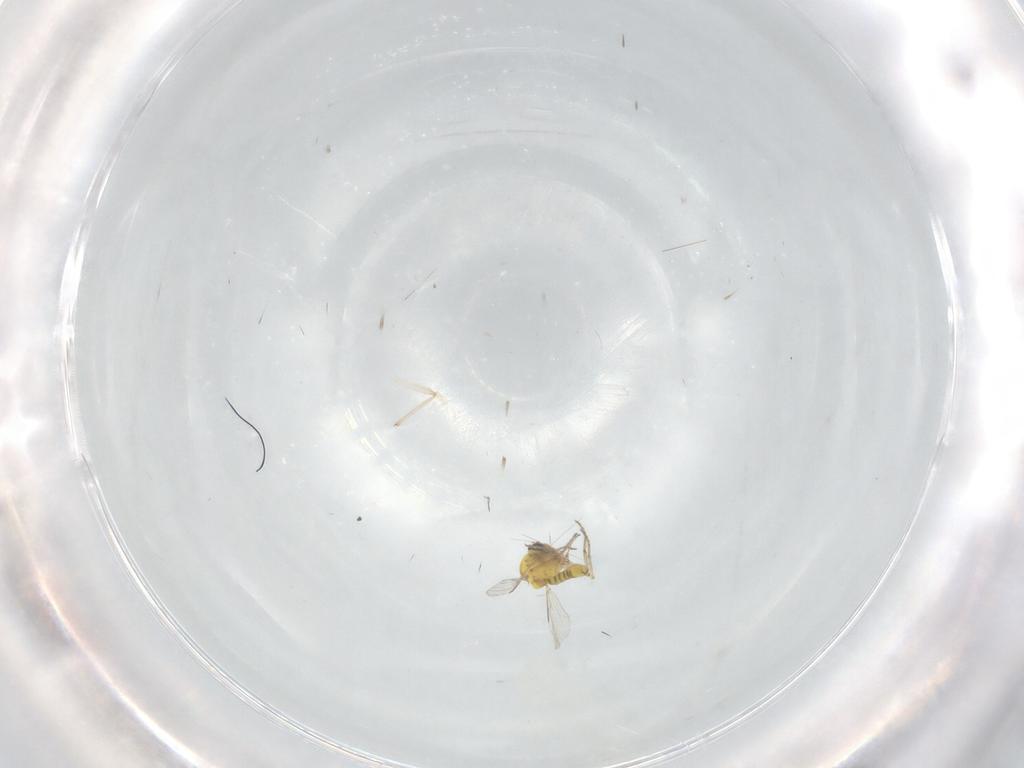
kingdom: Animalia
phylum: Arthropoda
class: Insecta
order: Diptera
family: Ceratopogonidae
